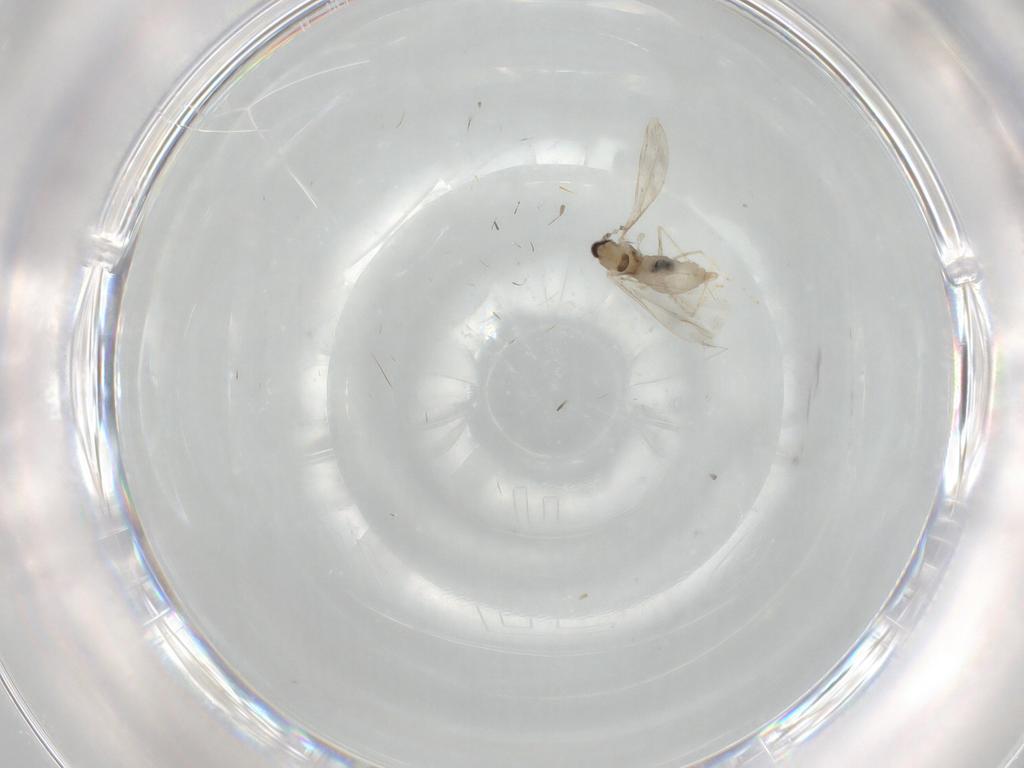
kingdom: Animalia
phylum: Arthropoda
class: Insecta
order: Diptera
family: Cecidomyiidae
